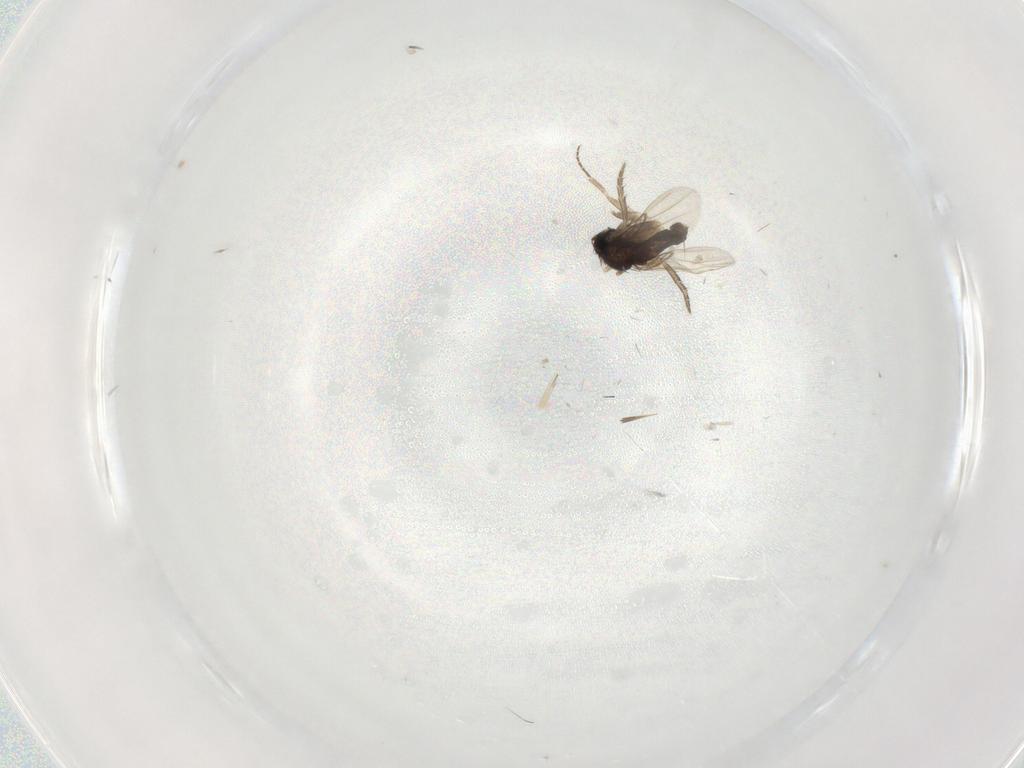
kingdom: Animalia
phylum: Arthropoda
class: Insecta
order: Diptera
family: Phoridae
